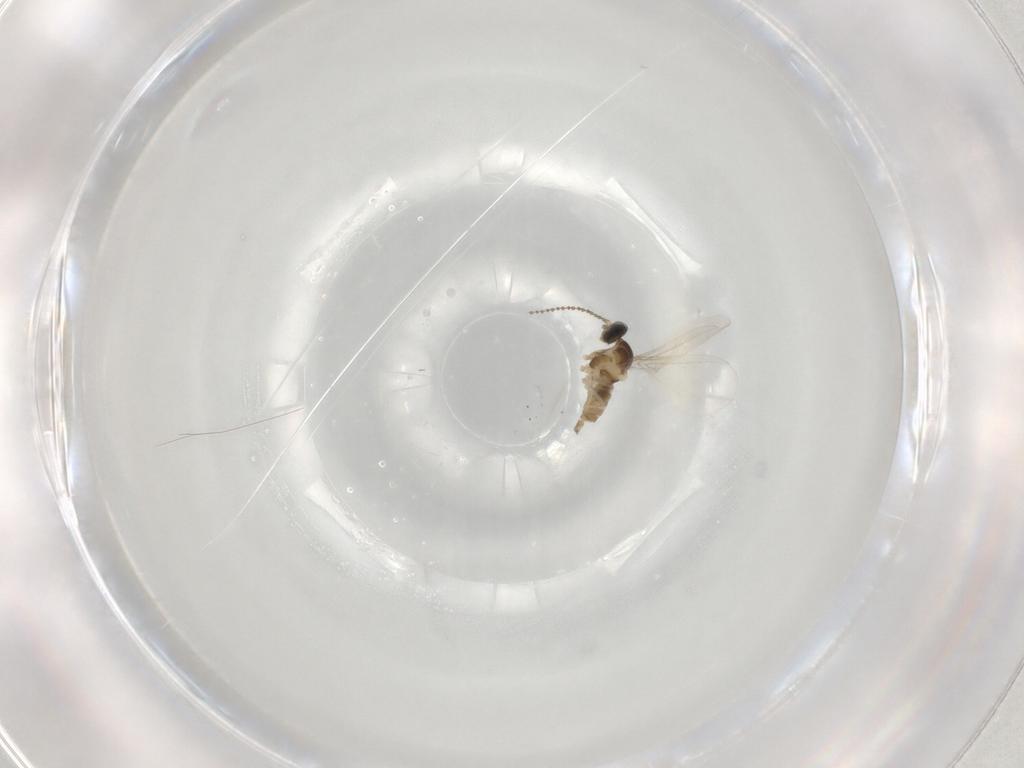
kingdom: Animalia
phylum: Arthropoda
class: Insecta
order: Diptera
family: Cecidomyiidae
